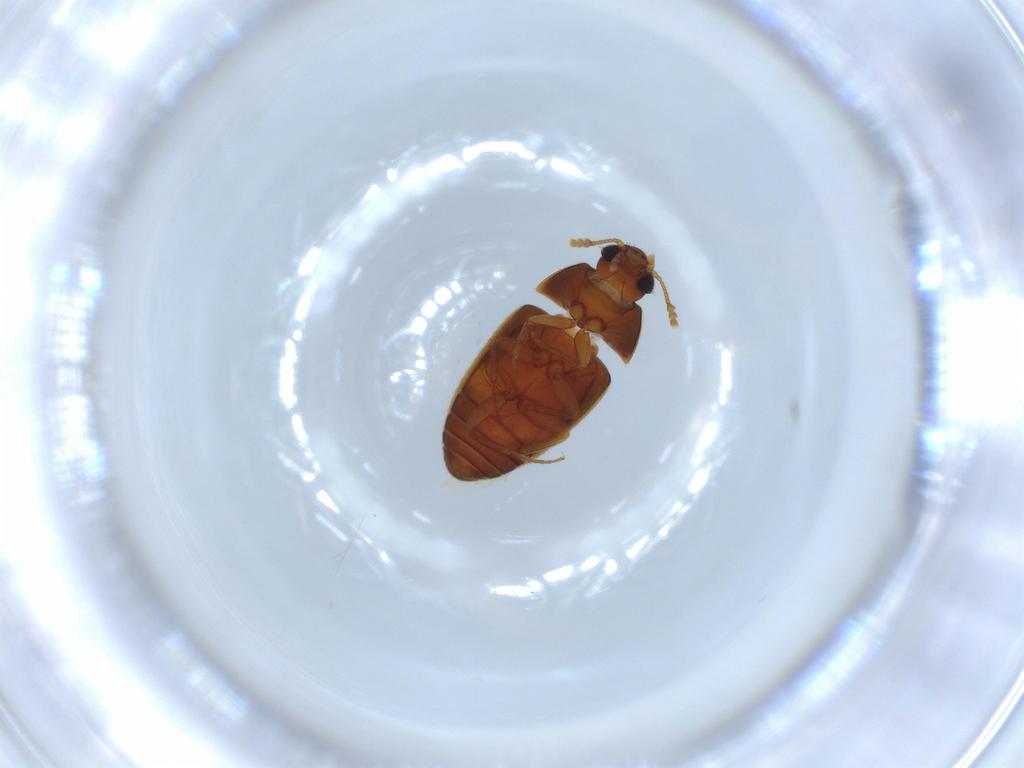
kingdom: Animalia
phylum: Arthropoda
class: Insecta
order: Coleoptera
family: Mycetophagidae
